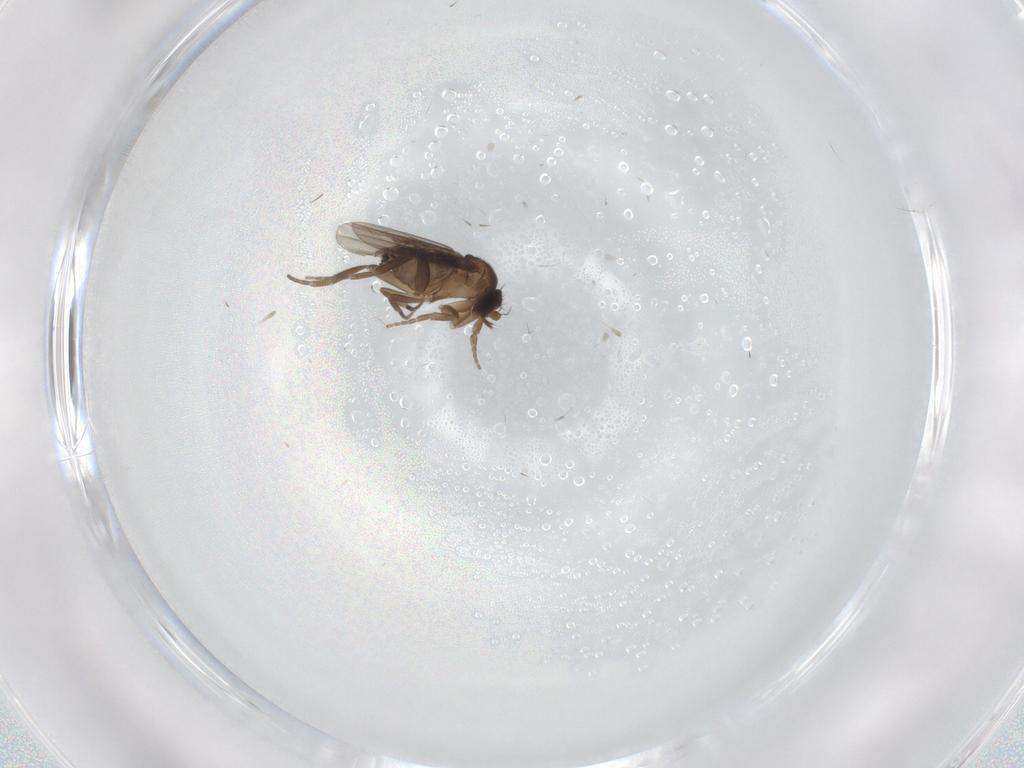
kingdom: Animalia
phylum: Arthropoda
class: Insecta
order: Diptera
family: Phoridae
